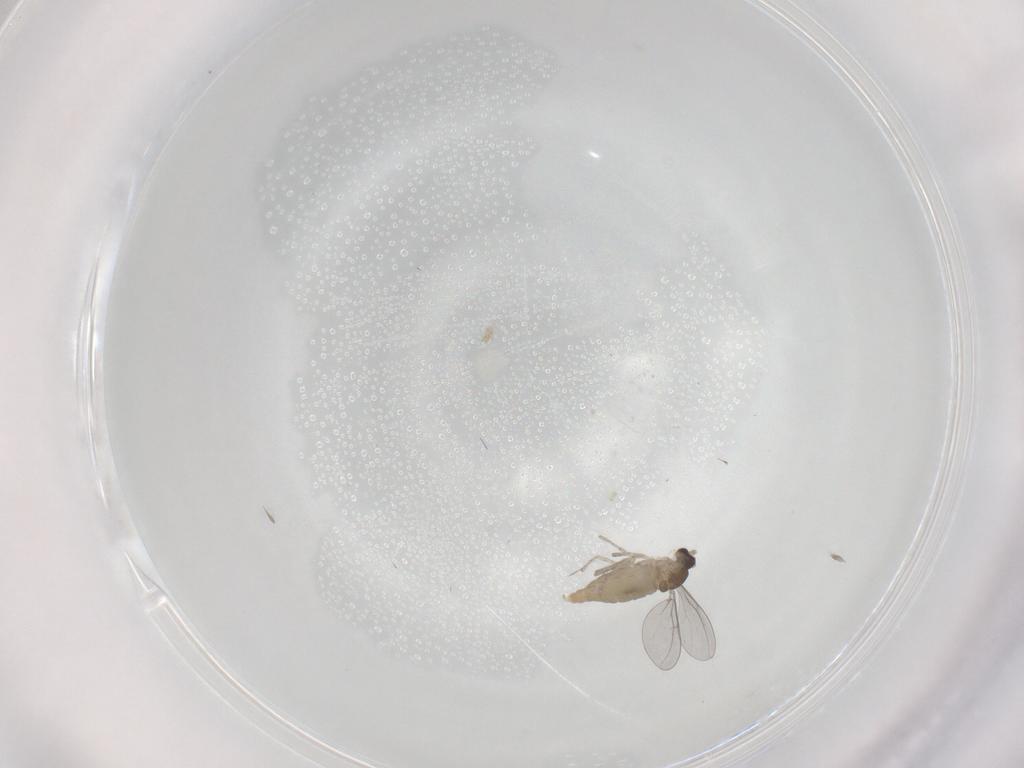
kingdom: Animalia
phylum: Arthropoda
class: Insecta
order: Diptera
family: Cecidomyiidae
